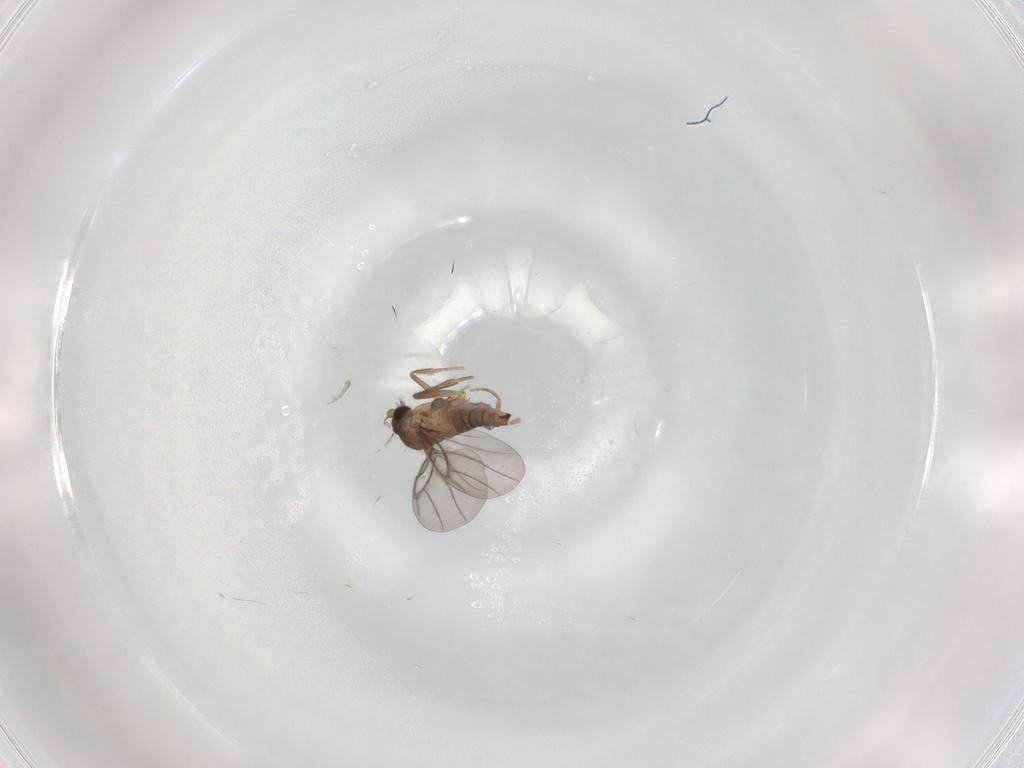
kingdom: Animalia
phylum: Arthropoda
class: Insecta
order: Diptera
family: Psychodidae
